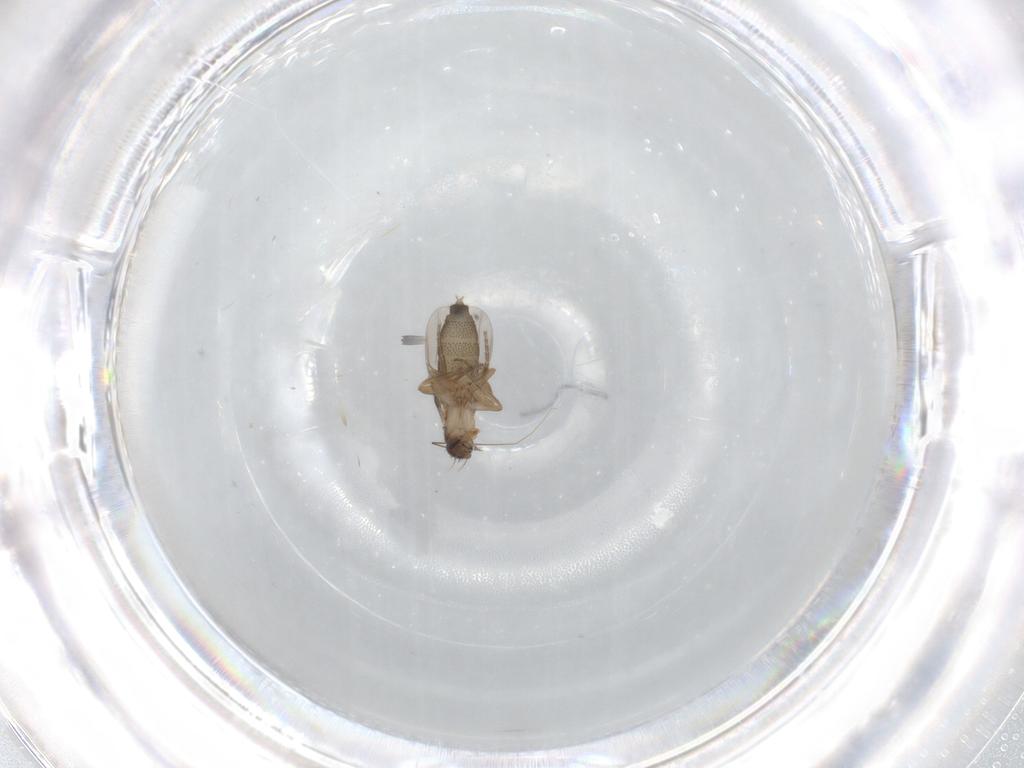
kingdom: Animalia
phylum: Arthropoda
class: Insecta
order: Diptera
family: Phoridae
